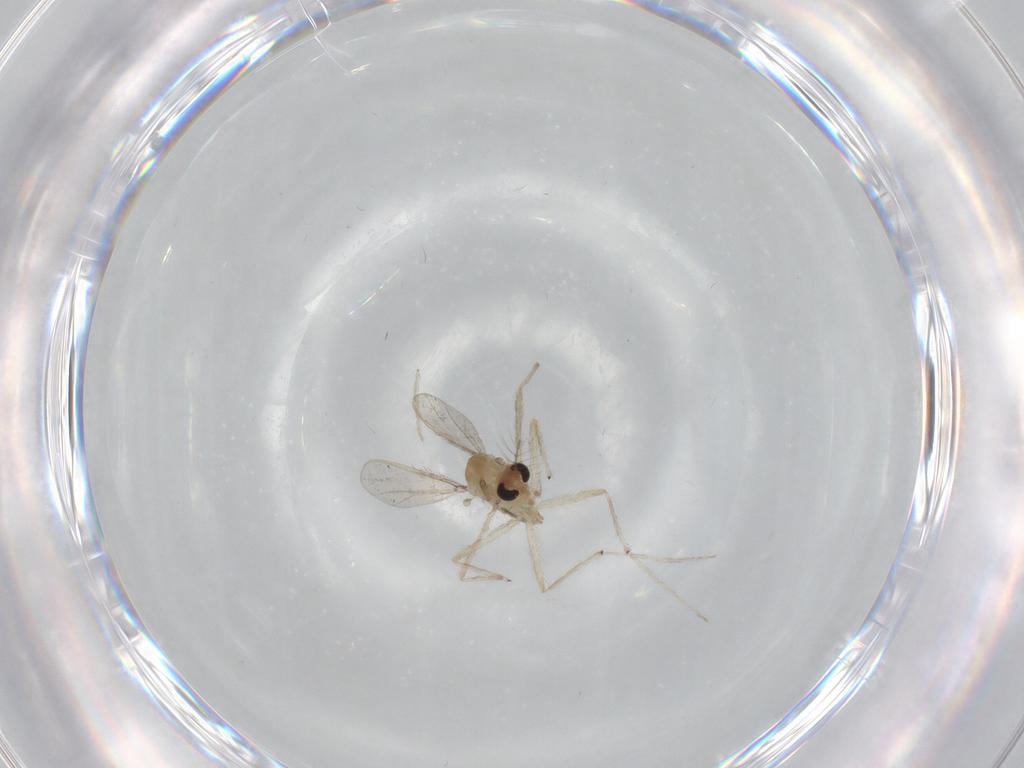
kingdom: Animalia
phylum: Arthropoda
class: Insecta
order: Diptera
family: Chironomidae
